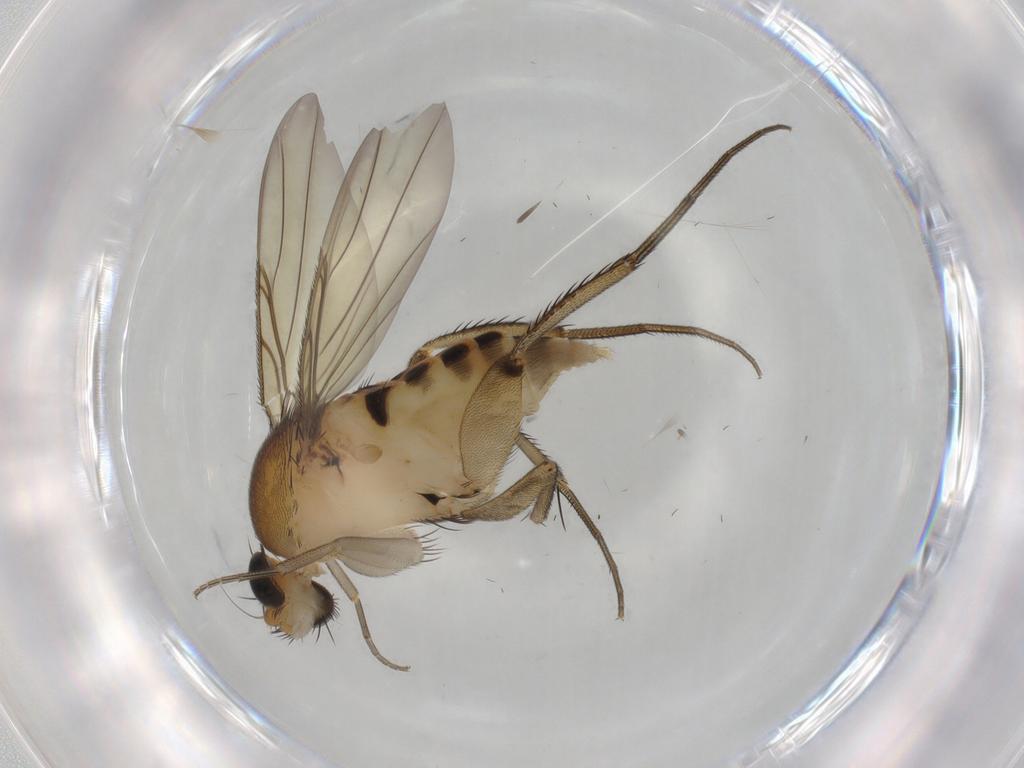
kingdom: Animalia
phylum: Arthropoda
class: Insecta
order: Diptera
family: Phoridae
